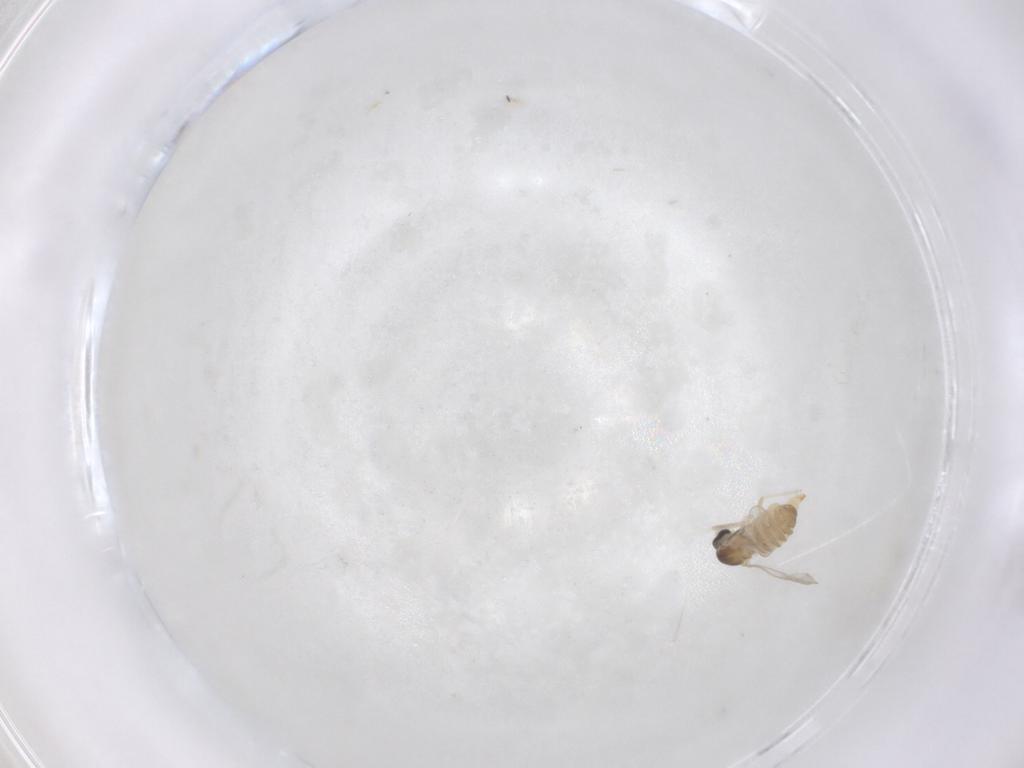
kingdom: Animalia
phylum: Arthropoda
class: Insecta
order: Diptera
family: Cecidomyiidae
